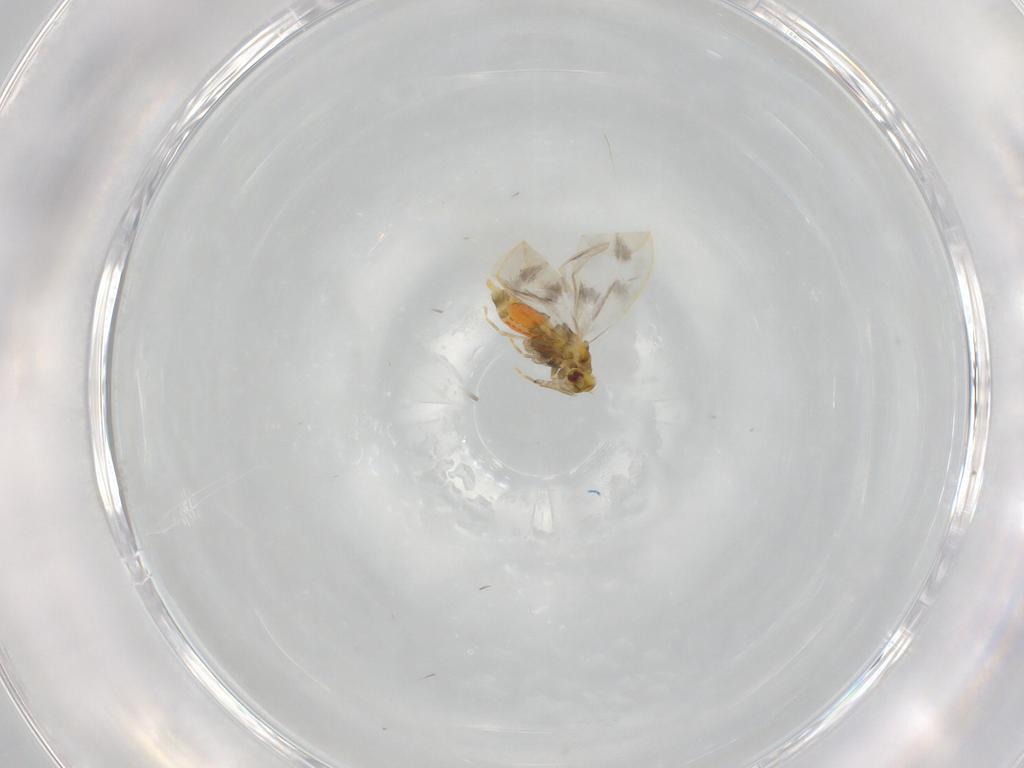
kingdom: Animalia
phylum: Arthropoda
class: Insecta
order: Hemiptera
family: Aleyrodidae
